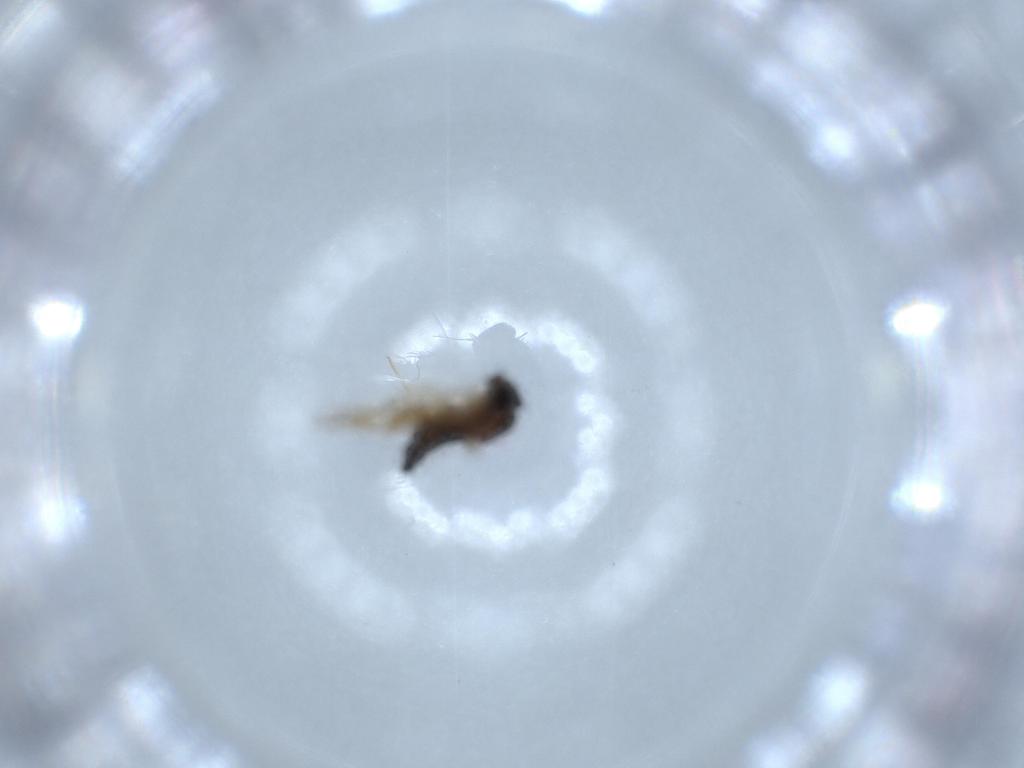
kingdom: Animalia
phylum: Arthropoda
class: Insecta
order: Diptera
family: Phoridae
